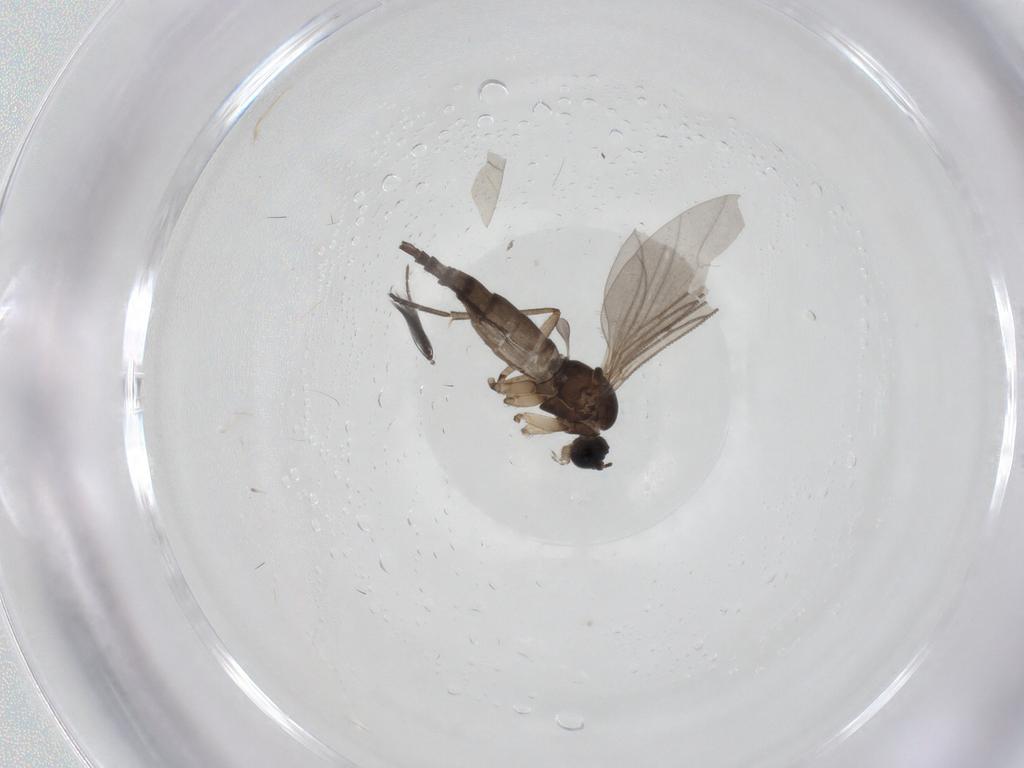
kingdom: Animalia
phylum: Arthropoda
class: Insecta
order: Diptera
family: Sciaridae
